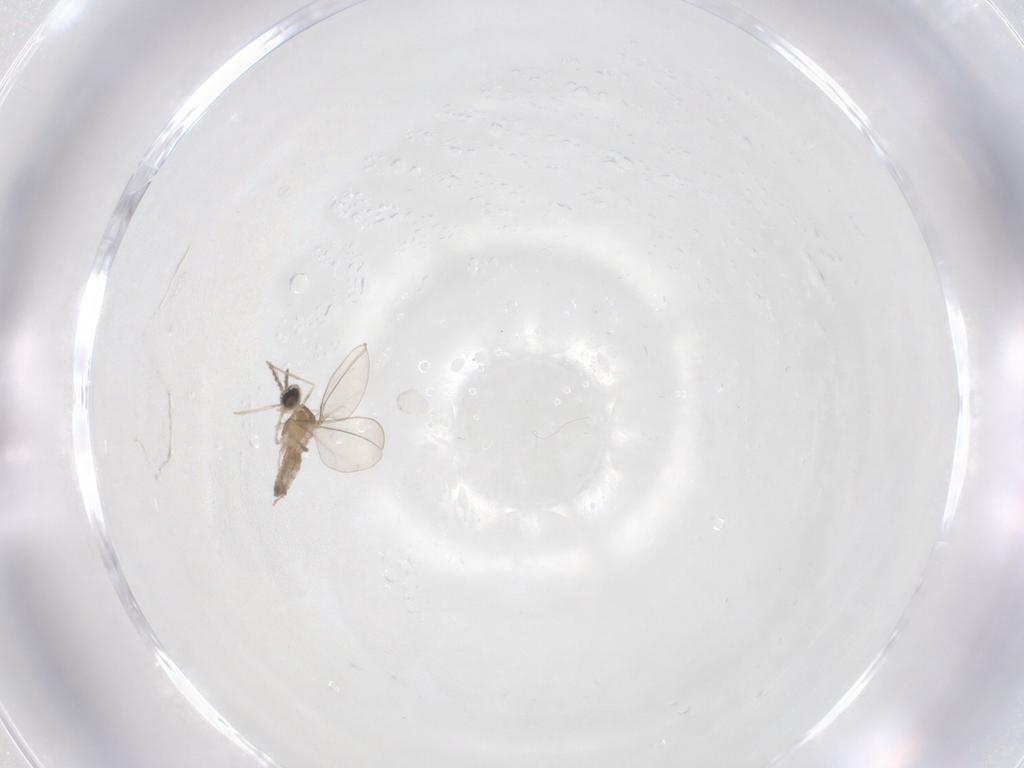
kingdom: Animalia
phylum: Arthropoda
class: Insecta
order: Diptera
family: Cecidomyiidae
